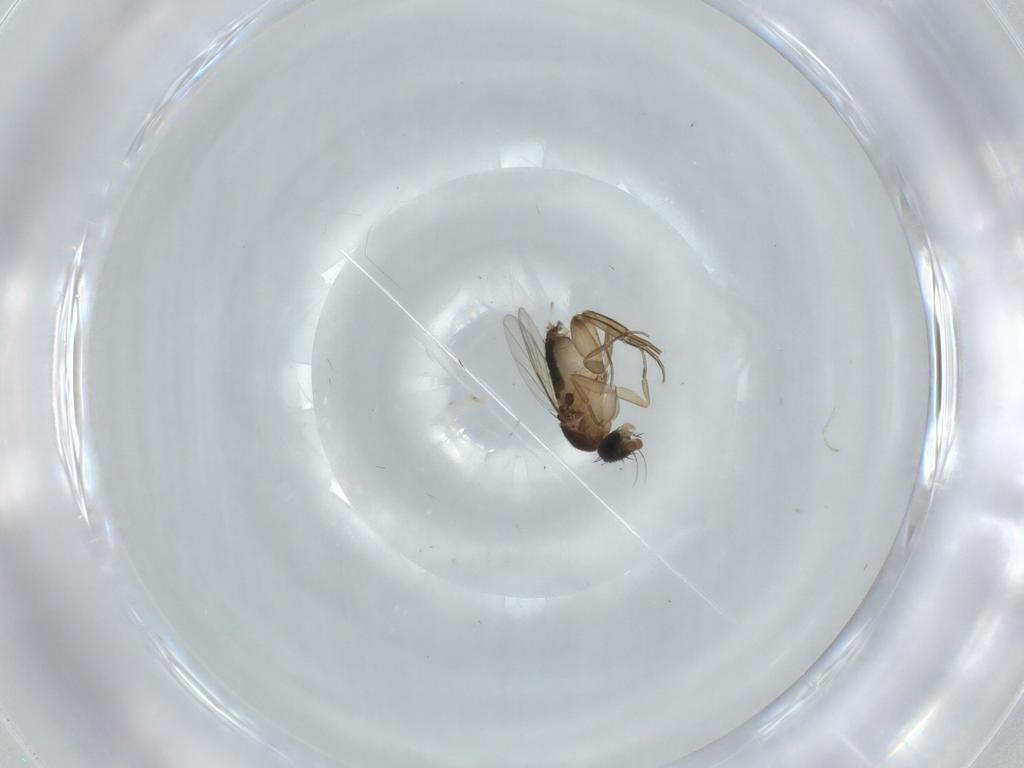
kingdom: Animalia
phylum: Arthropoda
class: Insecta
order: Diptera
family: Phoridae
